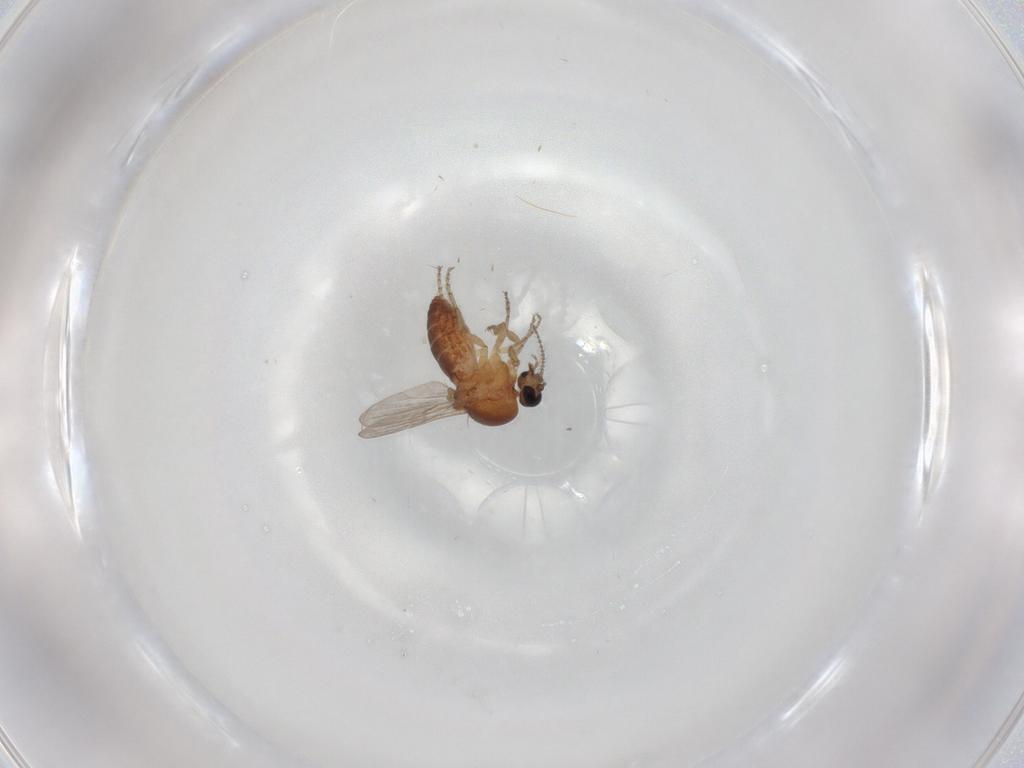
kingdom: Animalia
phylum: Arthropoda
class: Insecta
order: Diptera
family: Ceratopogonidae
